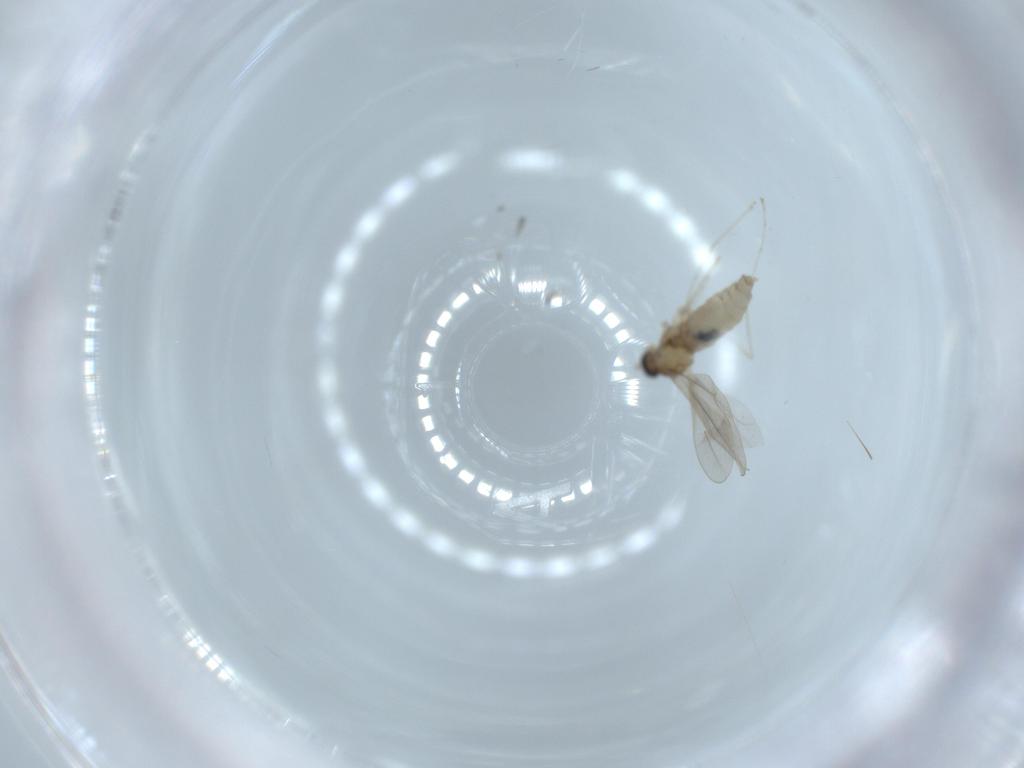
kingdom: Animalia
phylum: Arthropoda
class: Insecta
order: Diptera
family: Cecidomyiidae
